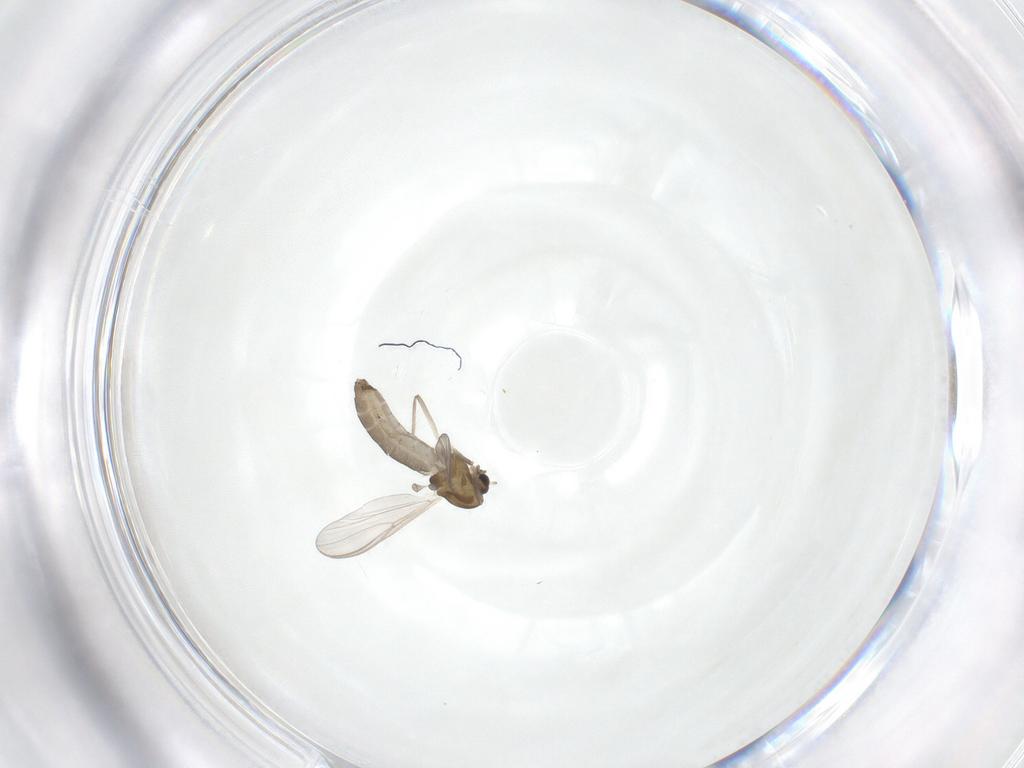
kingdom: Animalia
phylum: Arthropoda
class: Insecta
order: Diptera
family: Chironomidae
